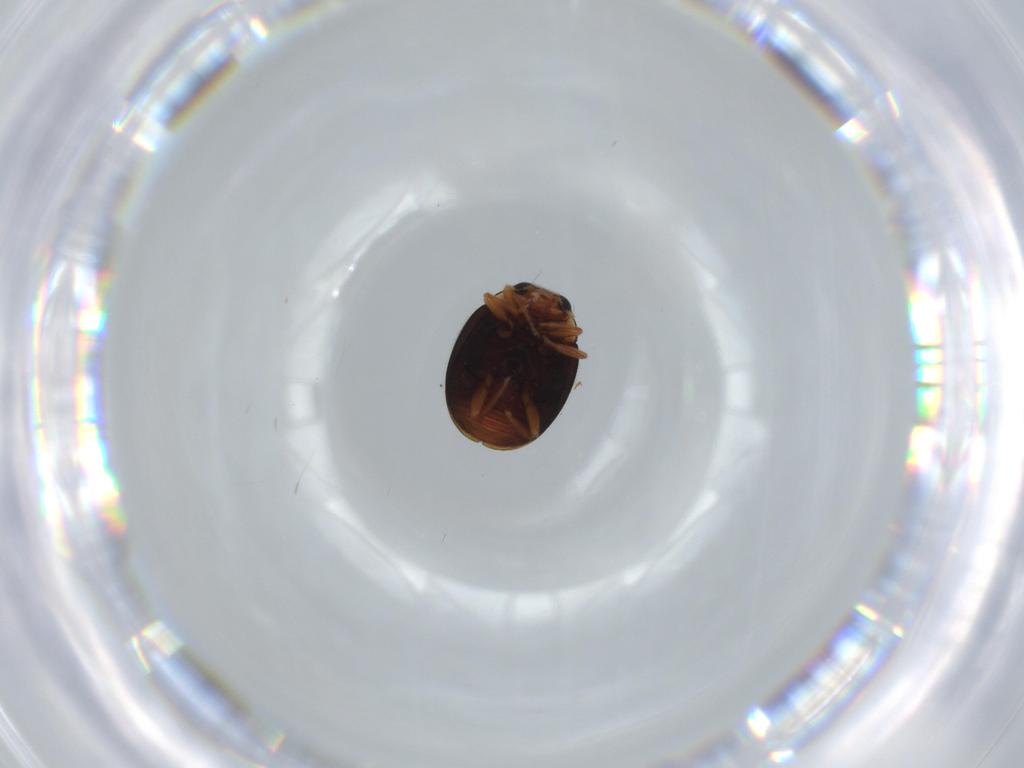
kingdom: Animalia
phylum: Arthropoda
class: Insecta
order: Coleoptera
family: Coccinellidae
